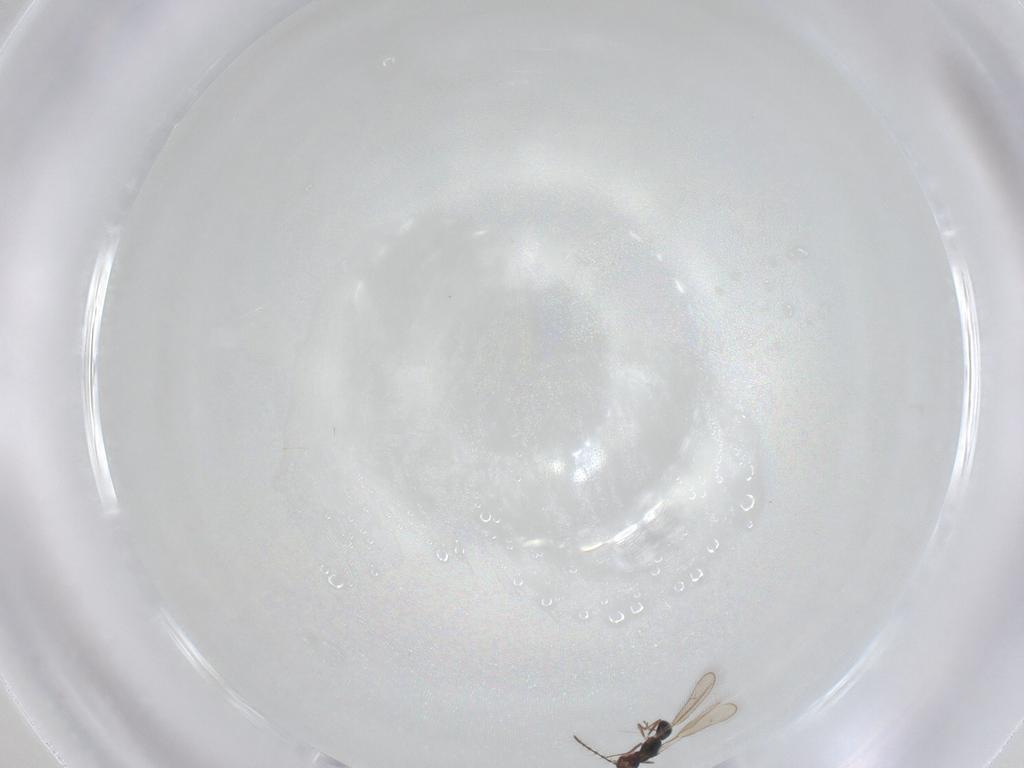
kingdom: Animalia
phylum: Arthropoda
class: Insecta
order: Hymenoptera
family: Pteromalidae
